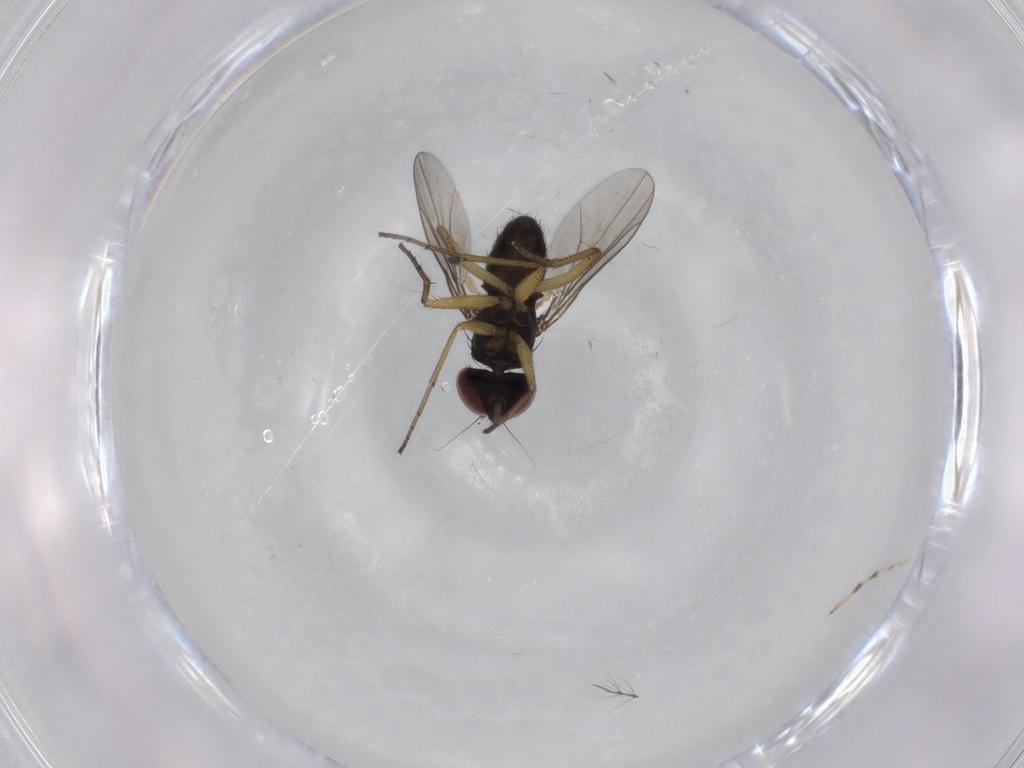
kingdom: Animalia
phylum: Arthropoda
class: Insecta
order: Diptera
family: Dolichopodidae
